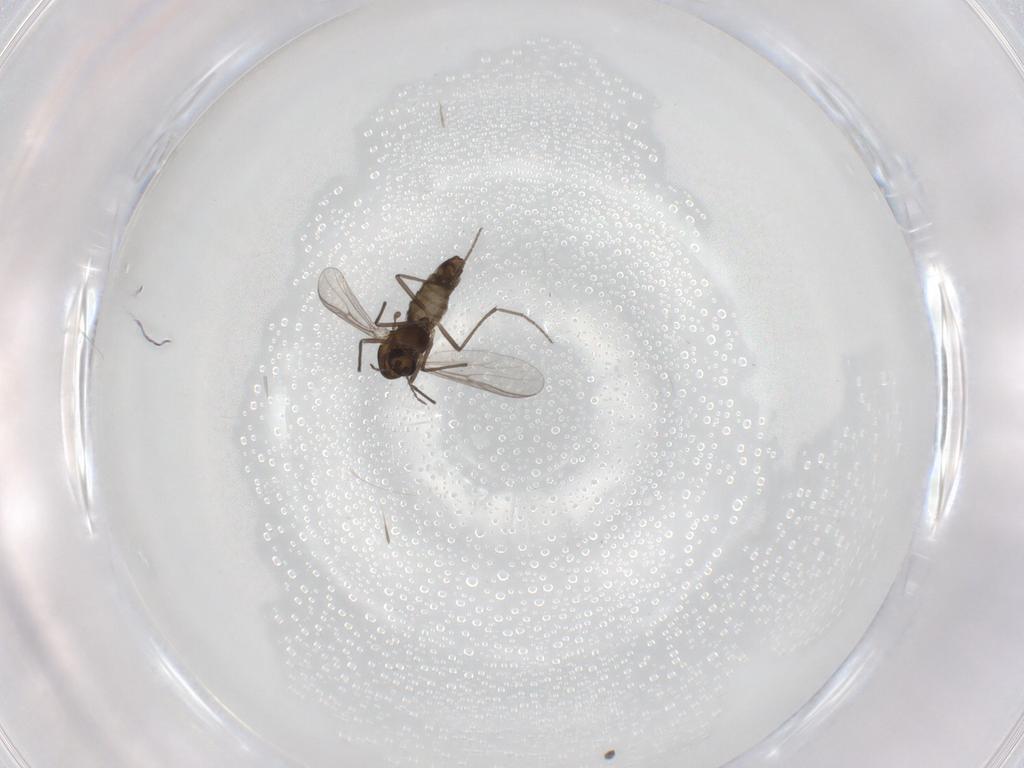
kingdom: Animalia
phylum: Arthropoda
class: Insecta
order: Diptera
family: Chironomidae
